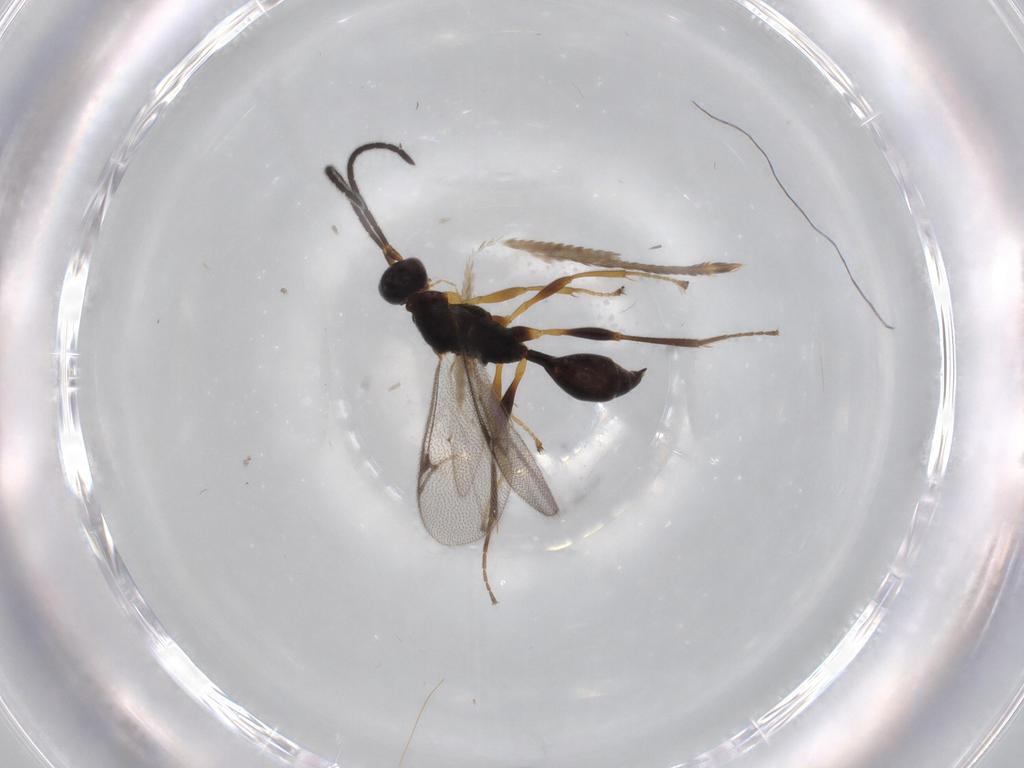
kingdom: Animalia
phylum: Arthropoda
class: Insecta
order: Hymenoptera
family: Proctotrupidae
